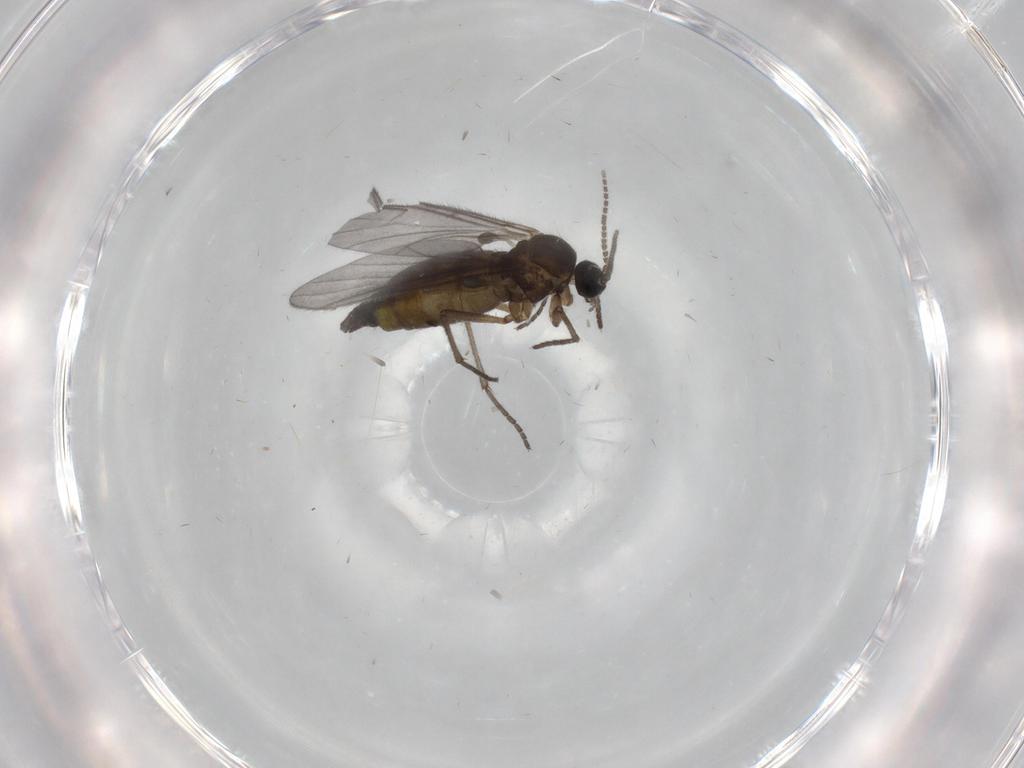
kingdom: Animalia
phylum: Arthropoda
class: Insecta
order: Diptera
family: Sciaridae
